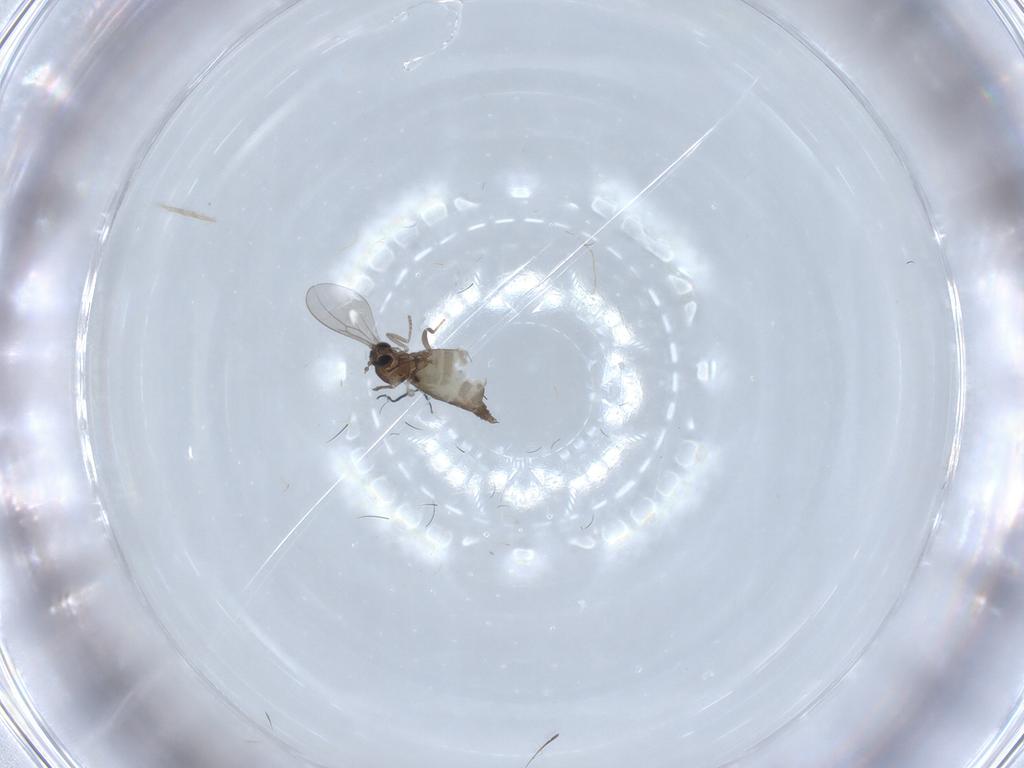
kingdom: Animalia
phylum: Arthropoda
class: Insecta
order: Diptera
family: Cecidomyiidae
